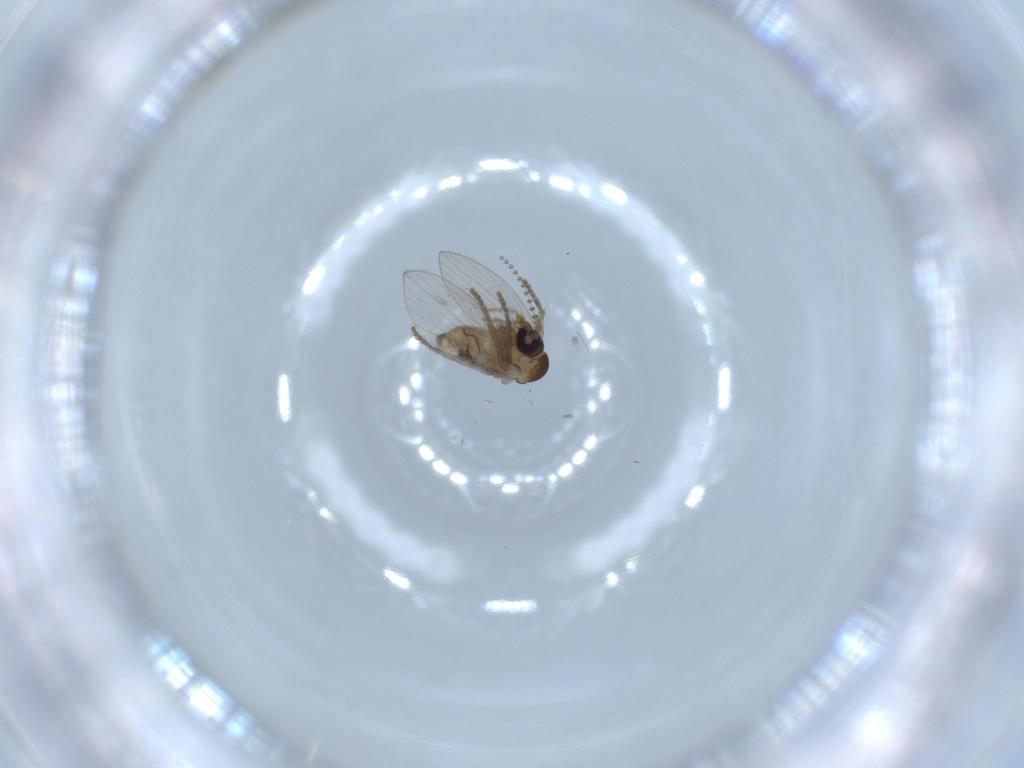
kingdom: Animalia
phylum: Arthropoda
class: Insecta
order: Diptera
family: Psychodidae
